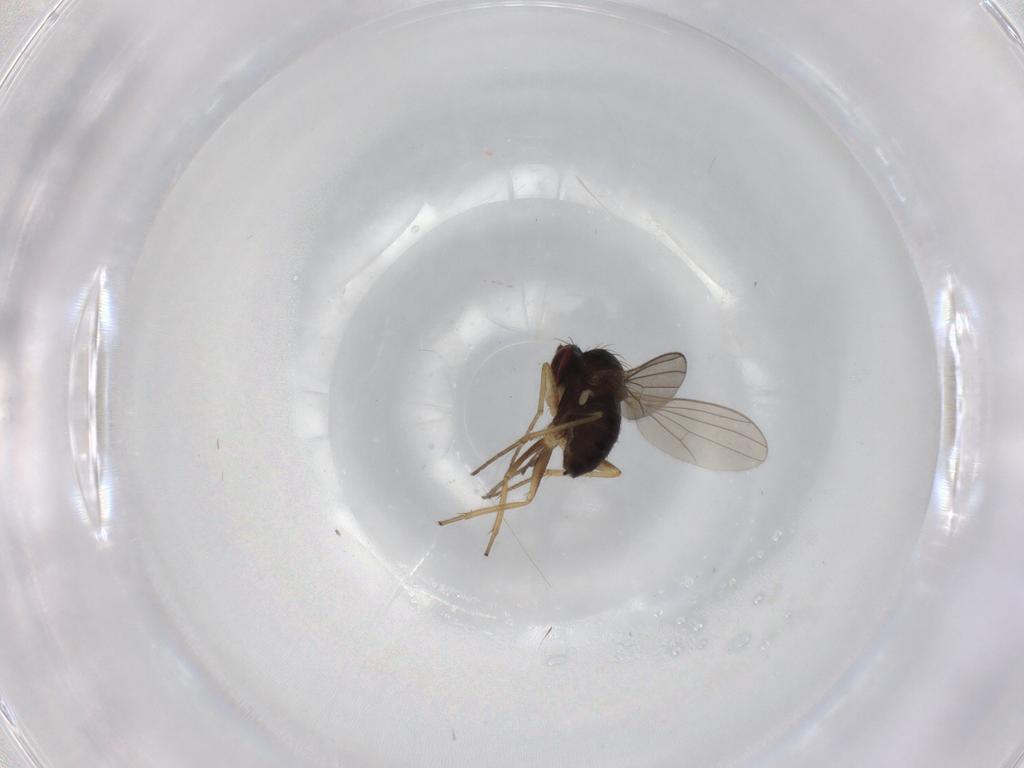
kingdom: Animalia
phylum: Arthropoda
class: Insecta
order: Diptera
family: Dolichopodidae
